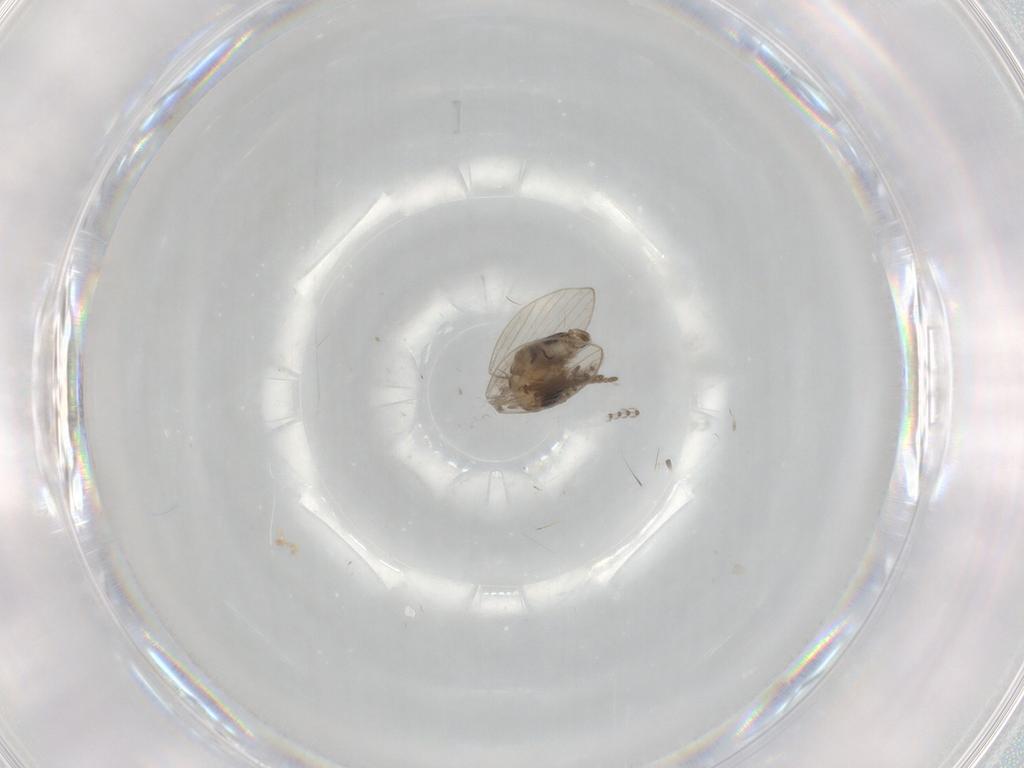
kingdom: Animalia
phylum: Arthropoda
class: Insecta
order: Diptera
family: Psychodidae
